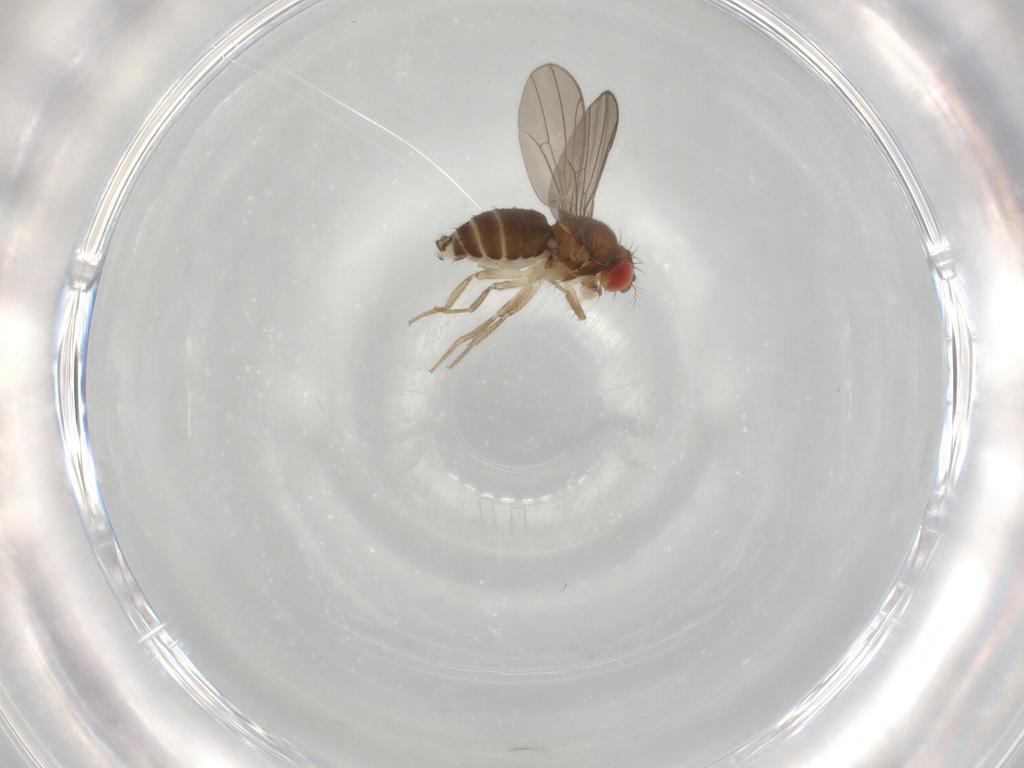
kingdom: Animalia
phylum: Arthropoda
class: Insecta
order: Diptera
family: Drosophilidae
